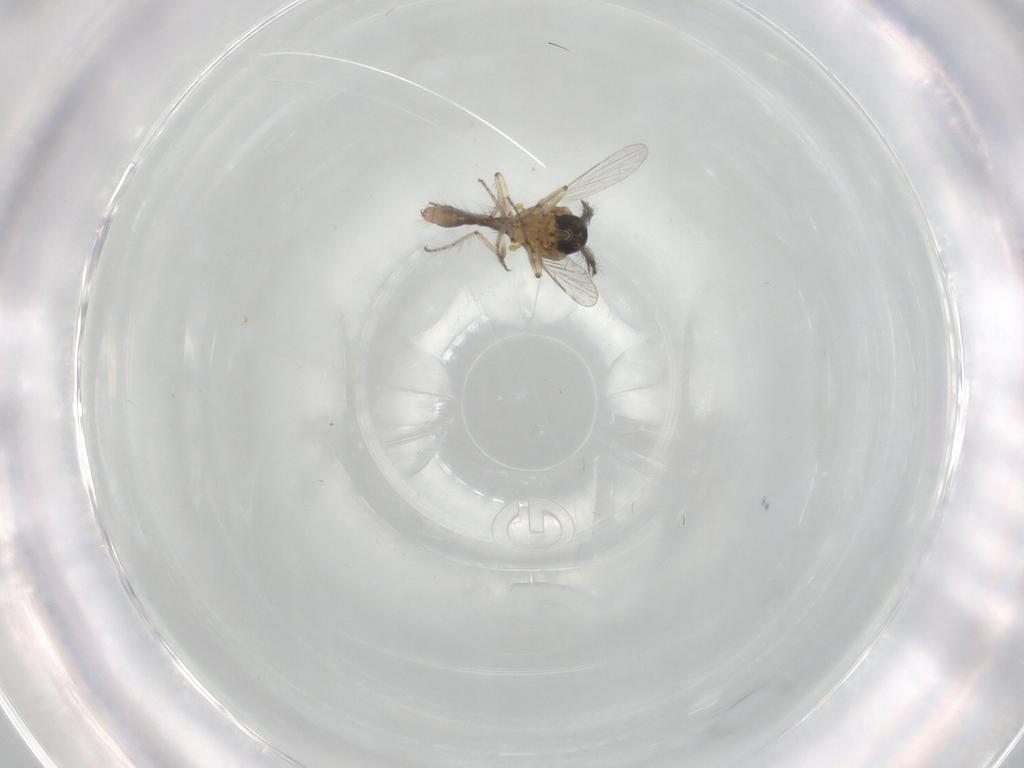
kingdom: Animalia
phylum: Arthropoda
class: Insecta
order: Diptera
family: Ceratopogonidae
